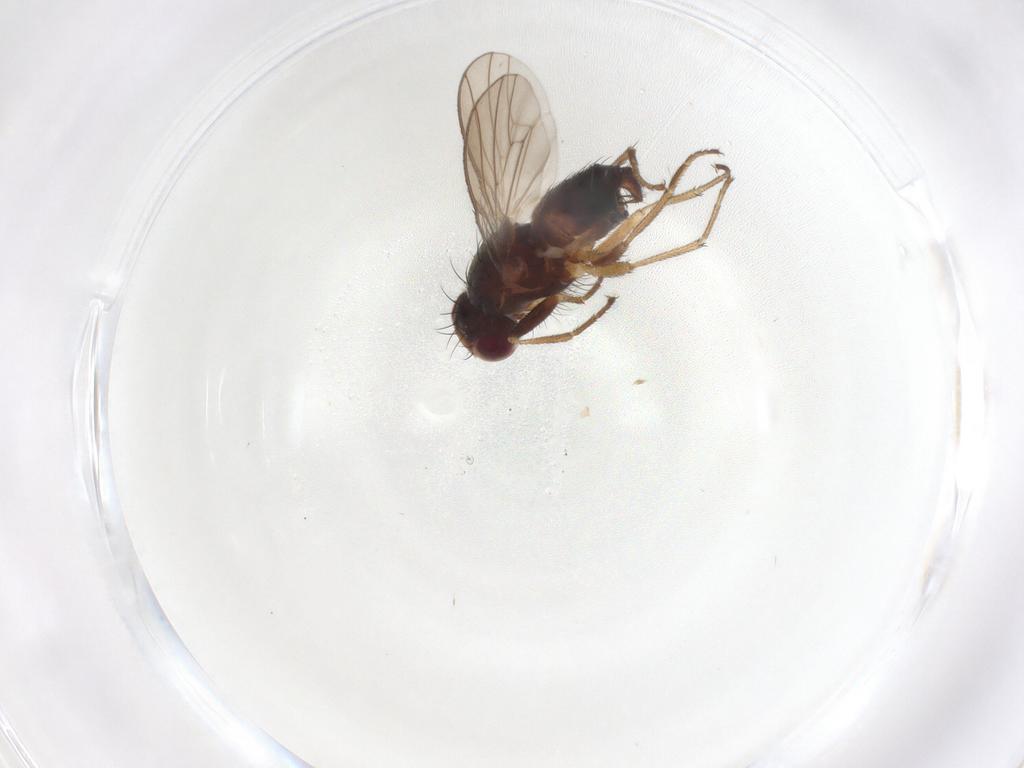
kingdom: Animalia
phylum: Arthropoda
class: Insecta
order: Diptera
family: Heleomyzidae
